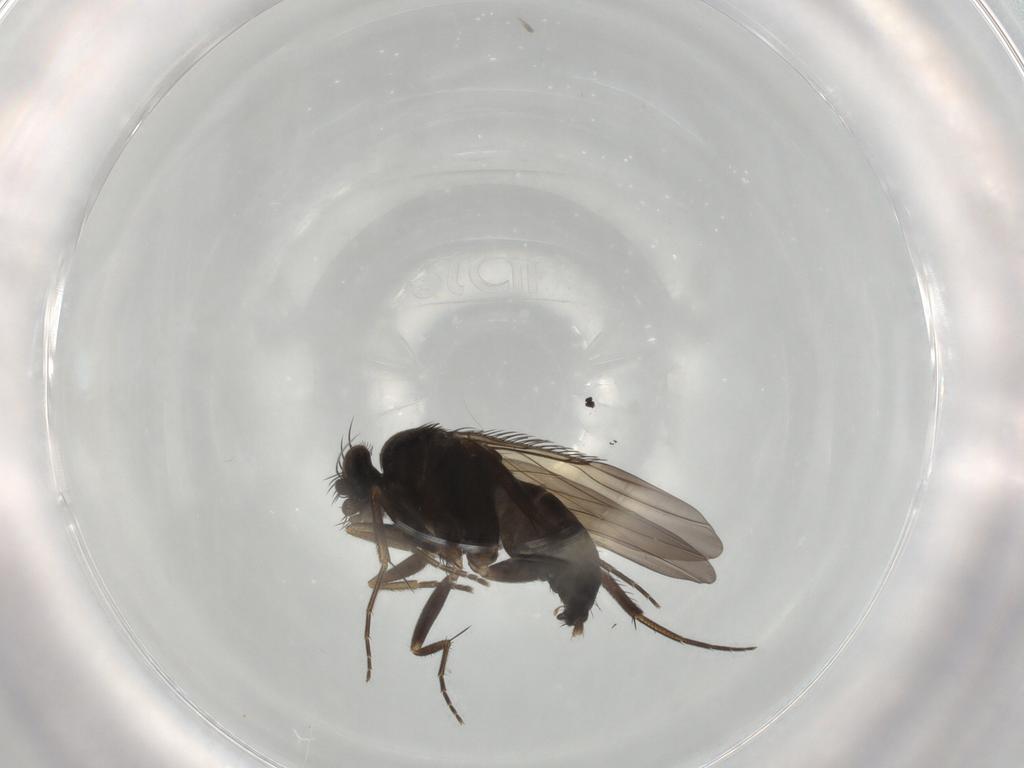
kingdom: Animalia
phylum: Arthropoda
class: Insecta
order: Diptera
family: Phoridae
